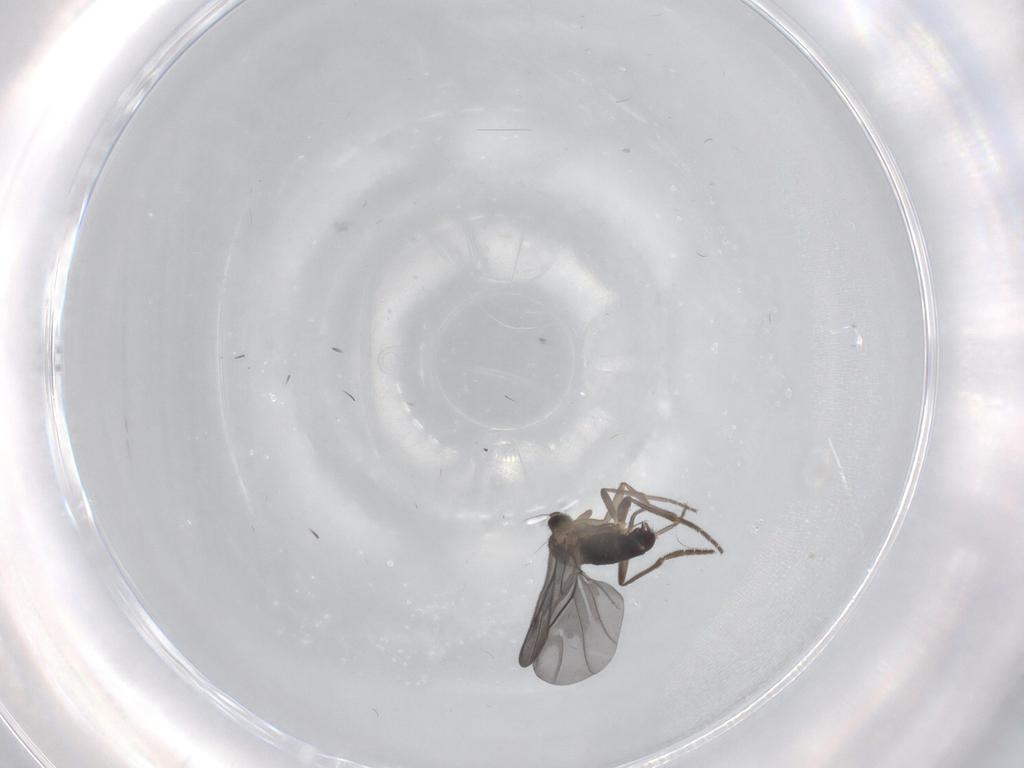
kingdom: Animalia
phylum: Arthropoda
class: Insecta
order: Diptera
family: Phoridae
